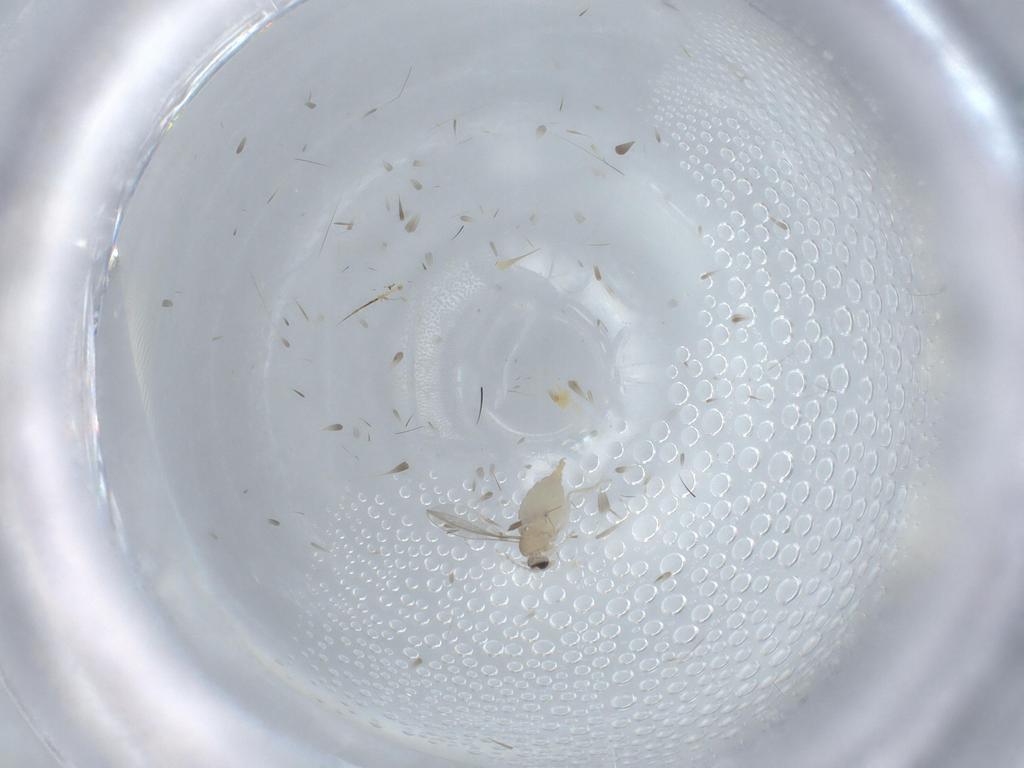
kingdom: Animalia
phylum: Arthropoda
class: Insecta
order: Diptera
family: Cecidomyiidae
